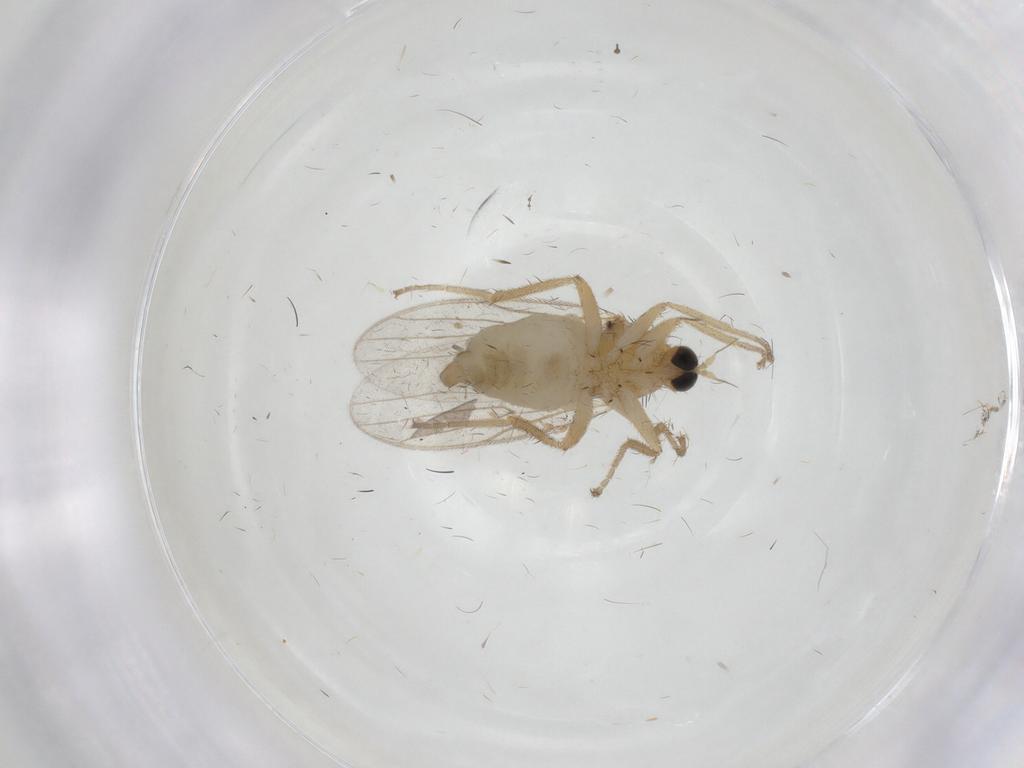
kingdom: Animalia
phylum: Arthropoda
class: Insecta
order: Diptera
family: Hybotidae
